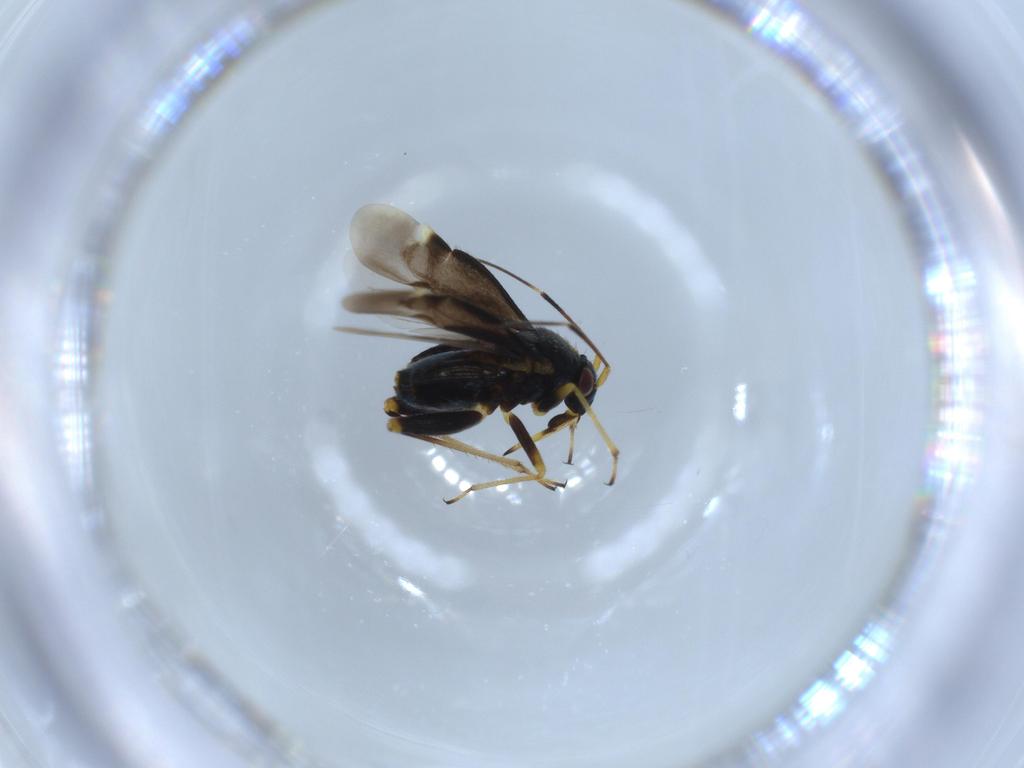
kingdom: Animalia
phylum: Arthropoda
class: Insecta
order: Hemiptera
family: Miridae
